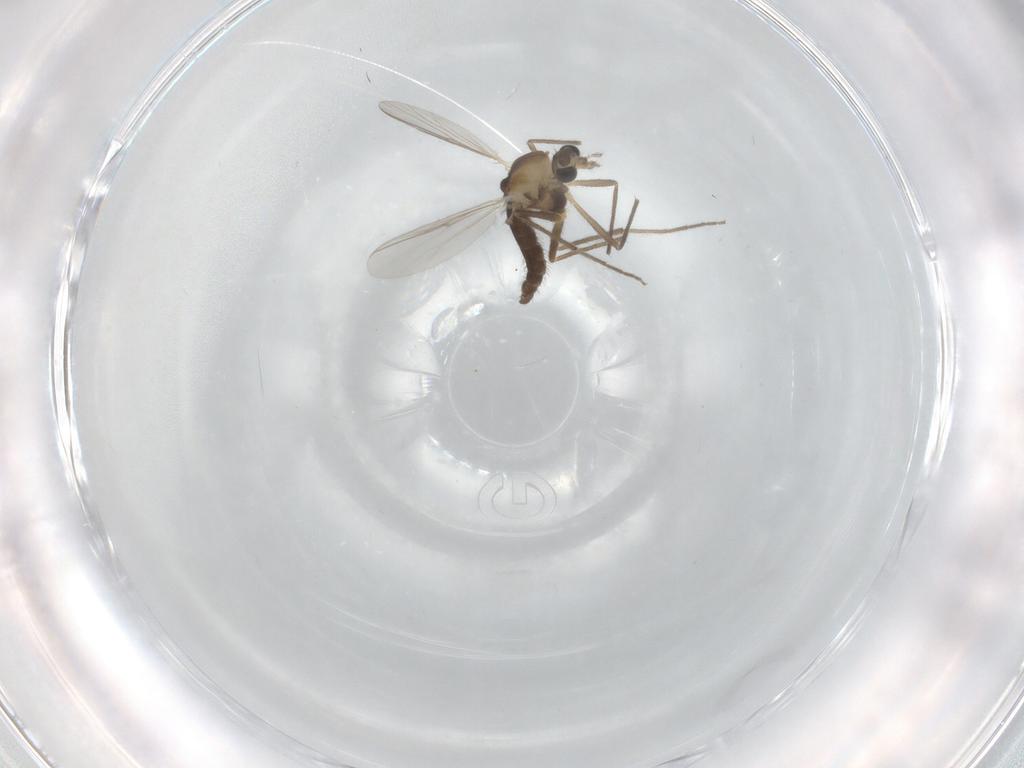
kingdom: Animalia
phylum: Arthropoda
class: Insecta
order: Diptera
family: Chironomidae
